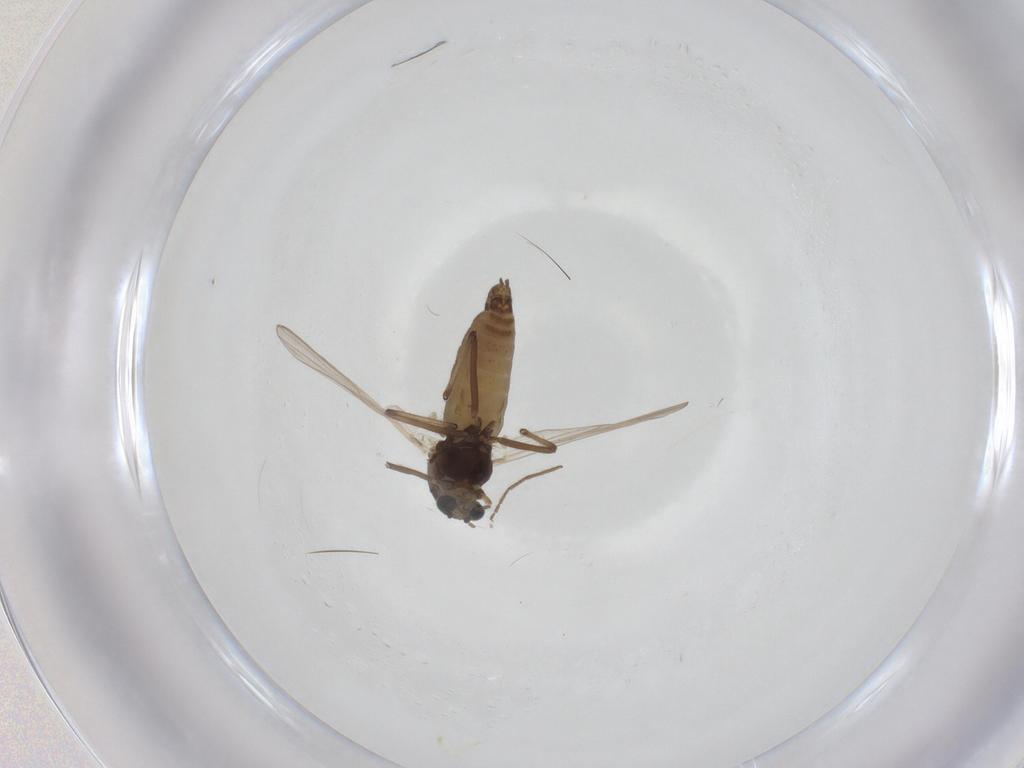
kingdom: Animalia
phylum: Arthropoda
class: Insecta
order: Diptera
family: Chironomidae
